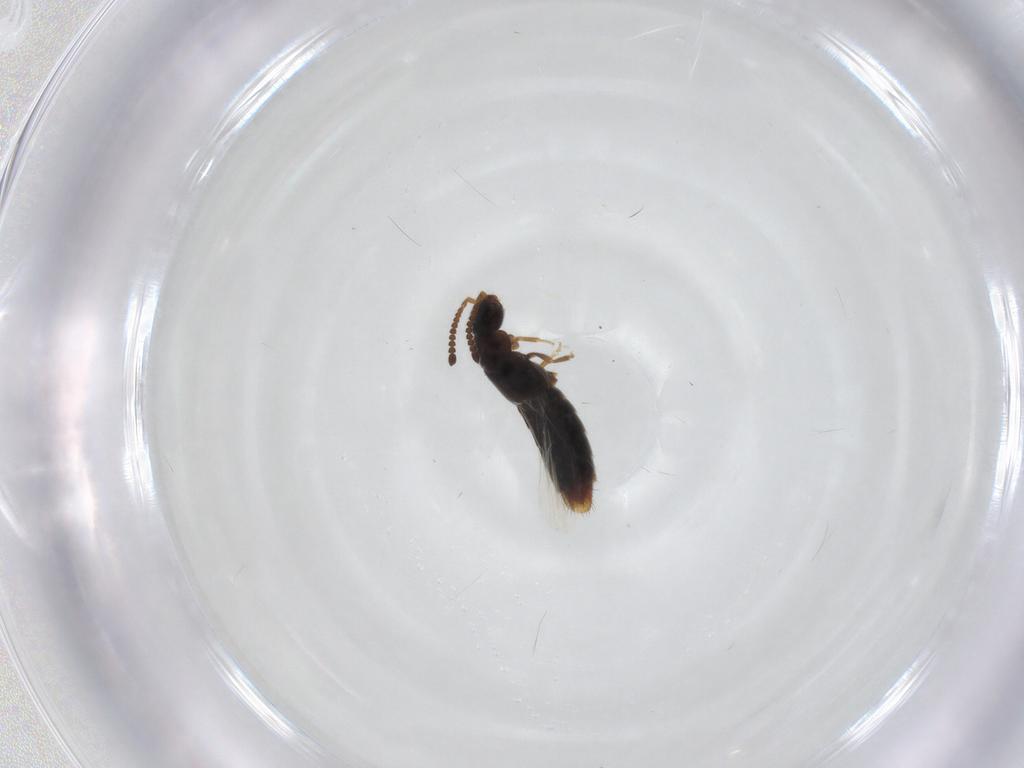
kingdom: Animalia
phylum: Arthropoda
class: Insecta
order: Coleoptera
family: Staphylinidae
